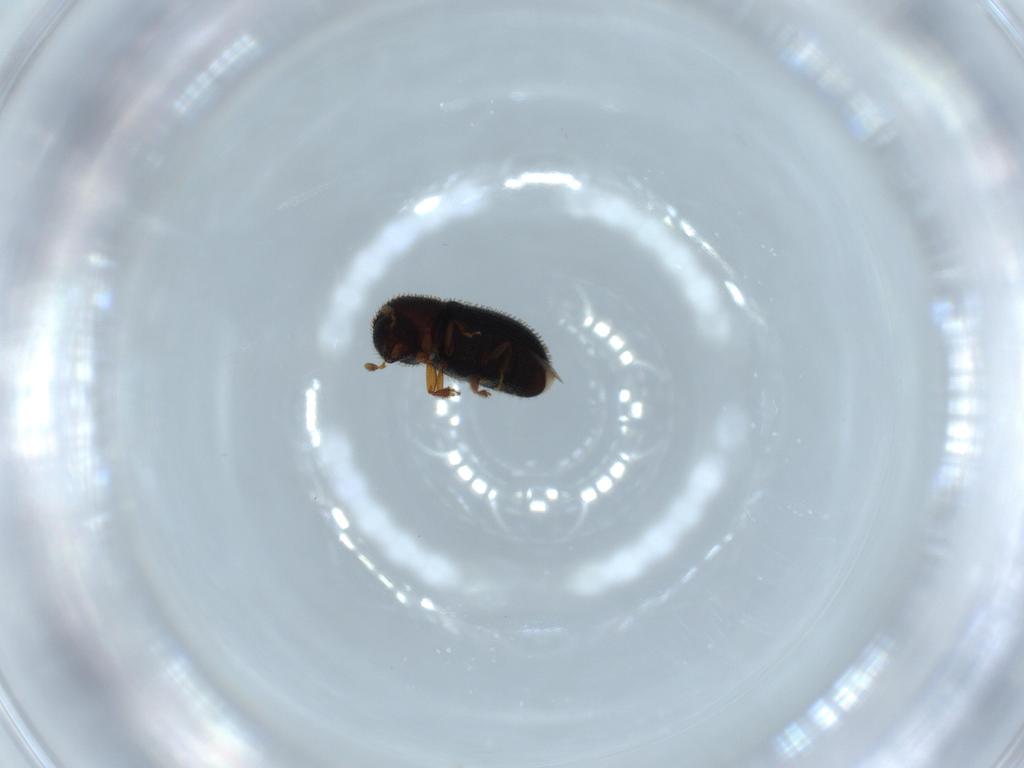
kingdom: Animalia
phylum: Arthropoda
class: Insecta
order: Coleoptera
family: Curculionidae
